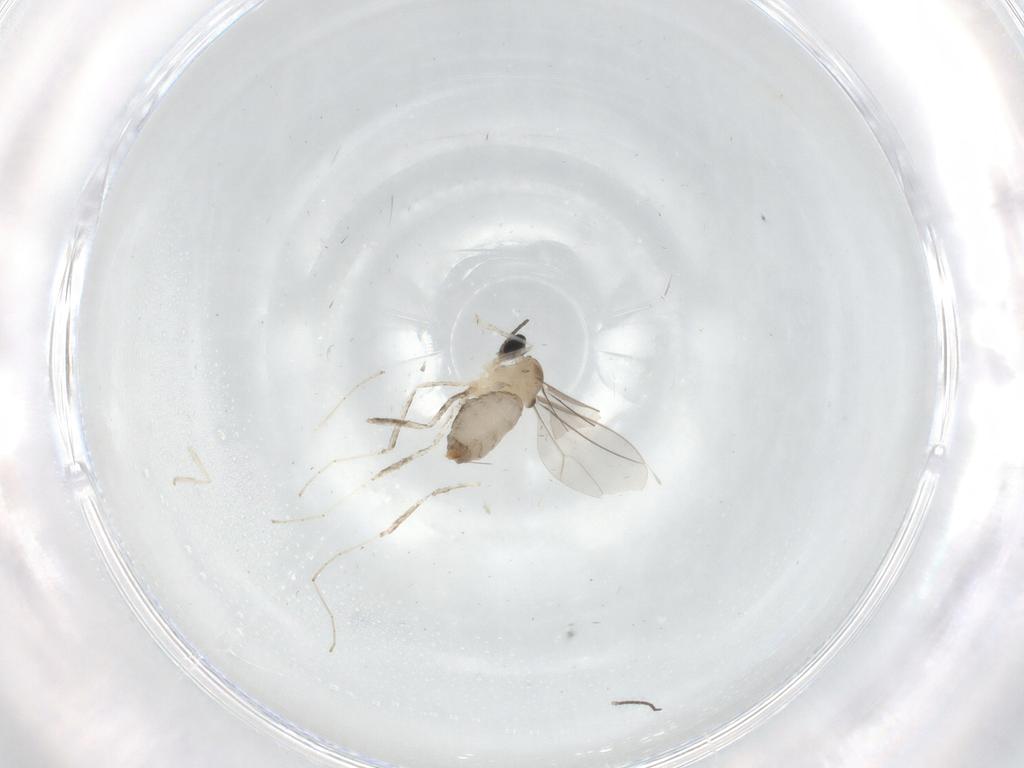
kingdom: Animalia
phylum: Arthropoda
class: Insecta
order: Diptera
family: Cecidomyiidae
